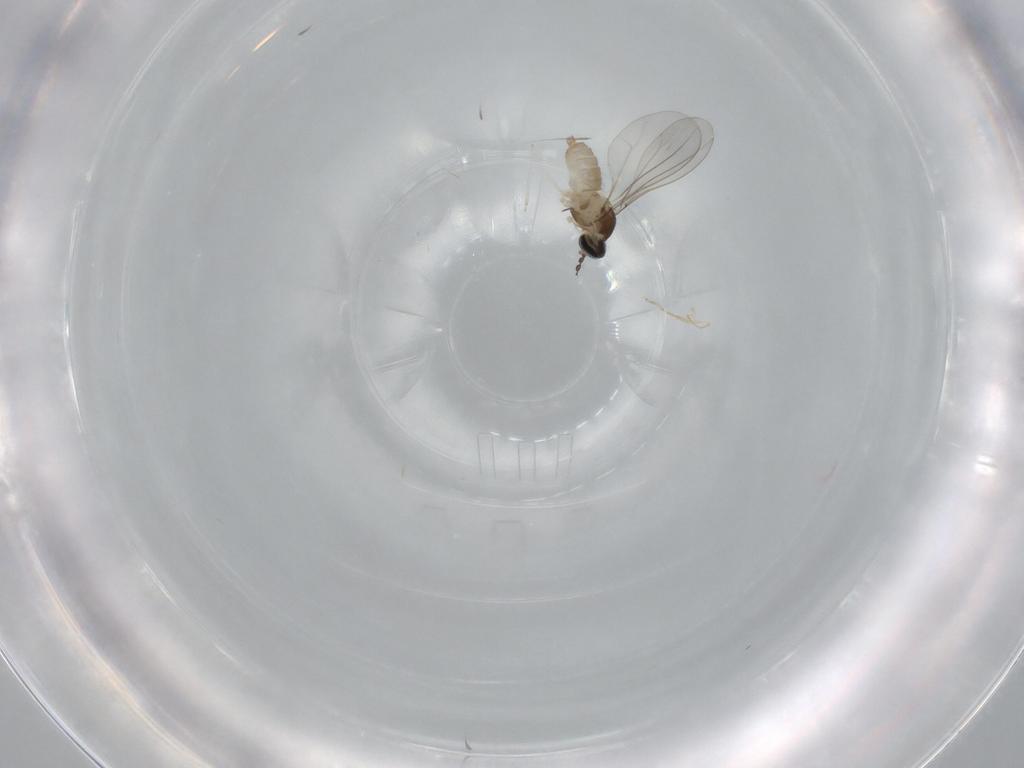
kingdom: Animalia
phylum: Arthropoda
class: Insecta
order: Diptera
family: Cecidomyiidae
